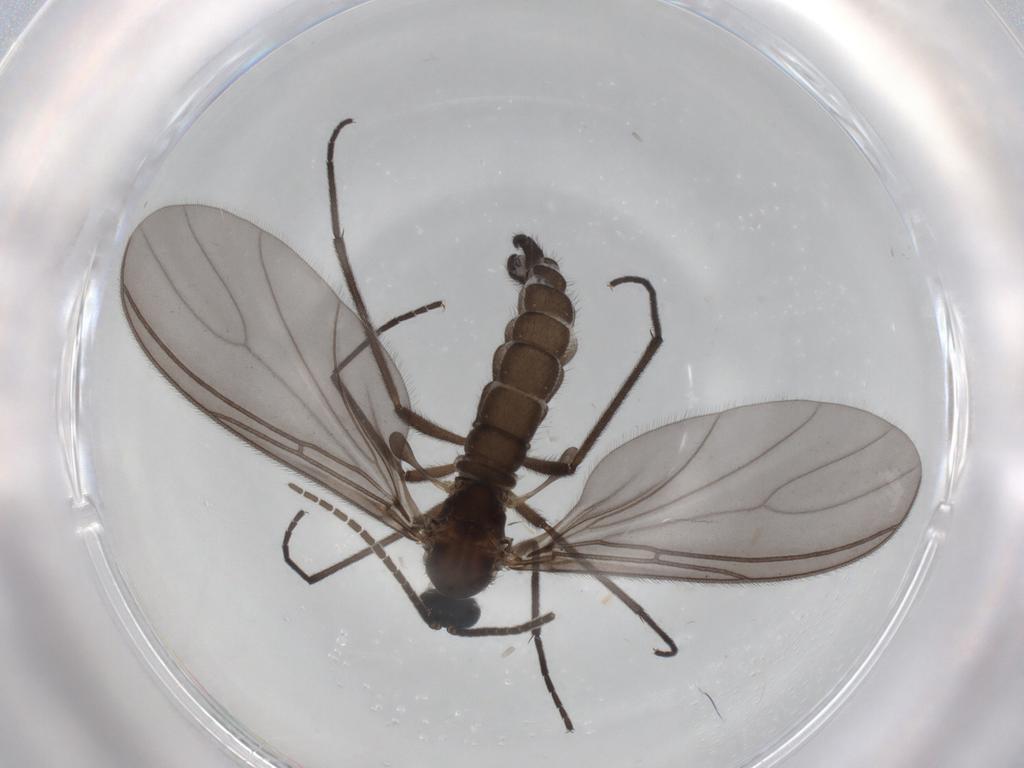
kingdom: Animalia
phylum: Arthropoda
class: Insecta
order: Diptera
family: Sciaridae
